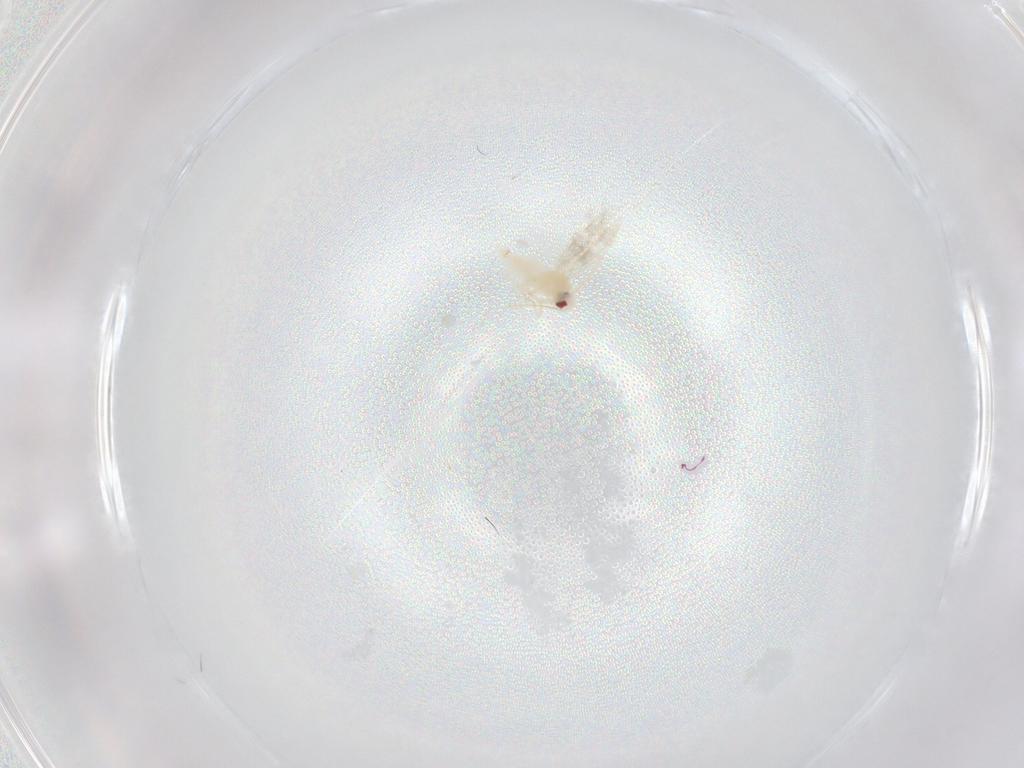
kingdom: Animalia
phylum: Arthropoda
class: Insecta
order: Hemiptera
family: Aleyrodidae
